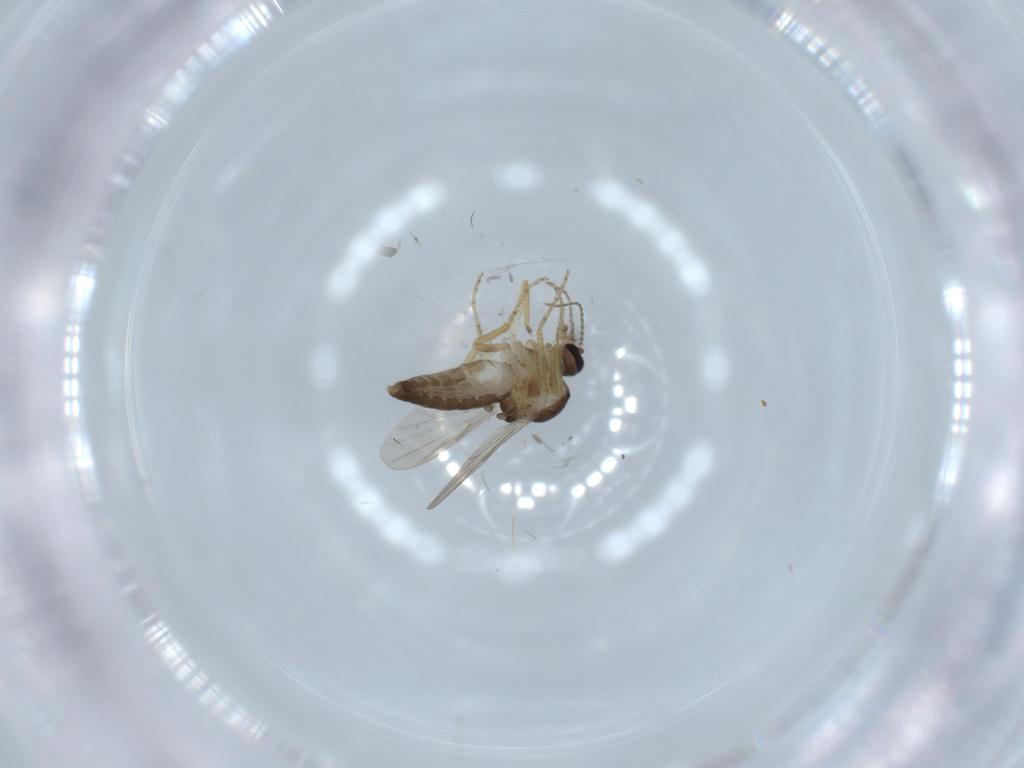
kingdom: Animalia
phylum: Arthropoda
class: Insecta
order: Diptera
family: Ceratopogonidae
